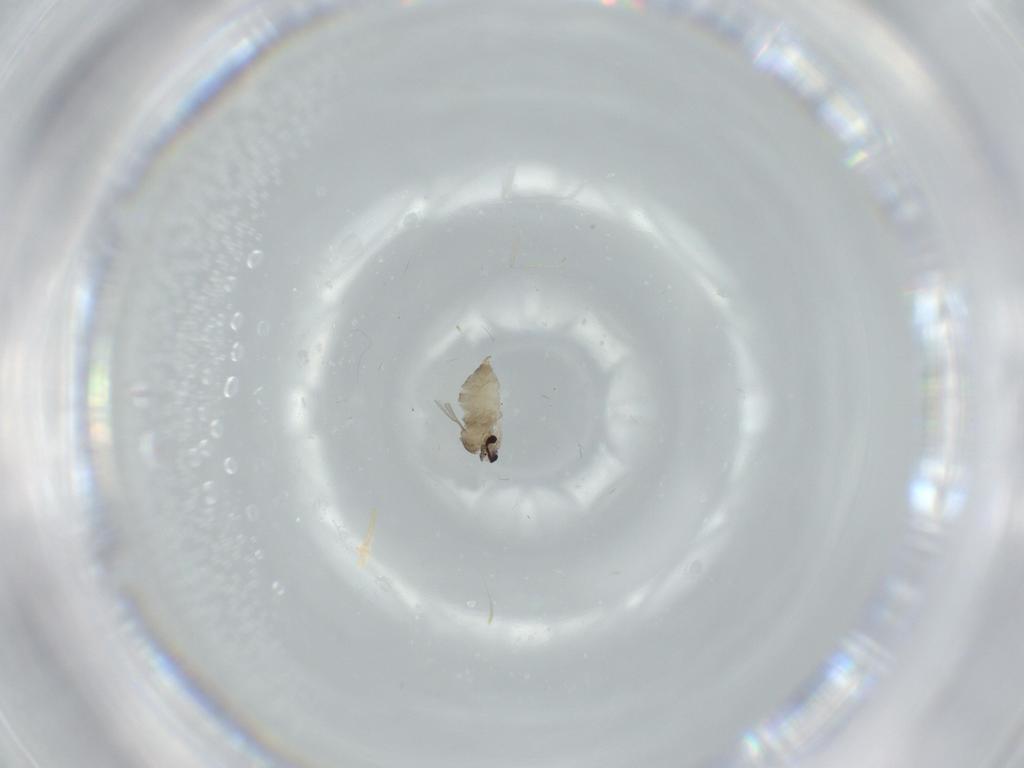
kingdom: Animalia
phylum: Arthropoda
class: Insecta
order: Diptera
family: Cecidomyiidae
